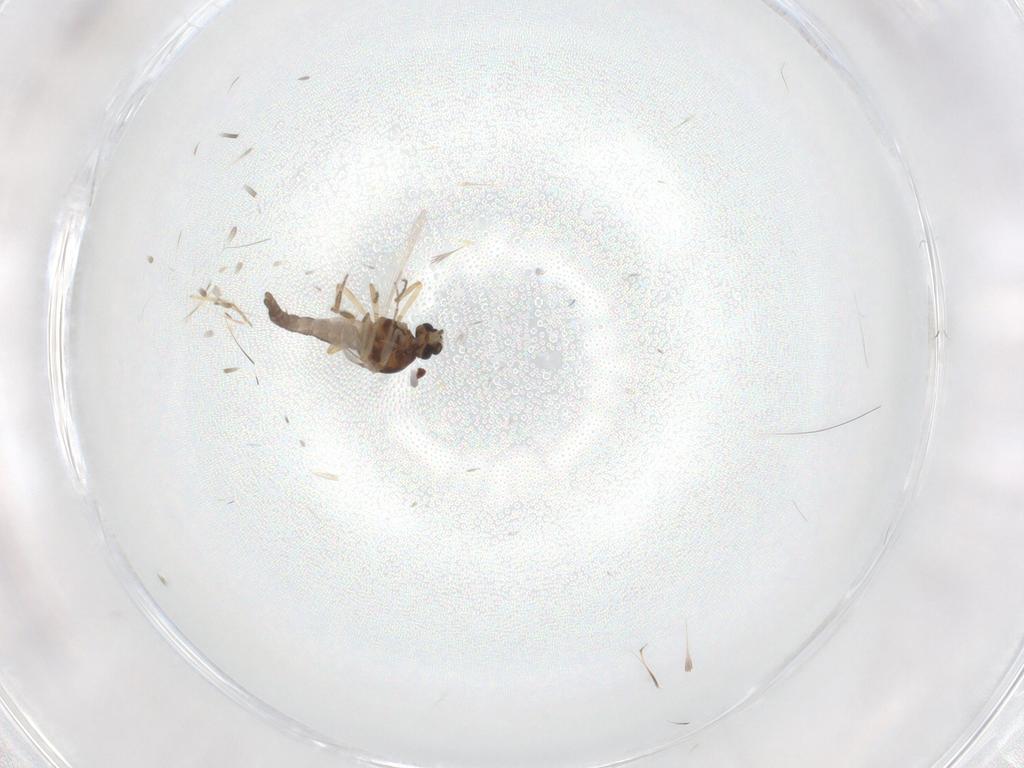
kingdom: Animalia
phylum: Arthropoda
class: Insecta
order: Diptera
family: Ceratopogonidae
